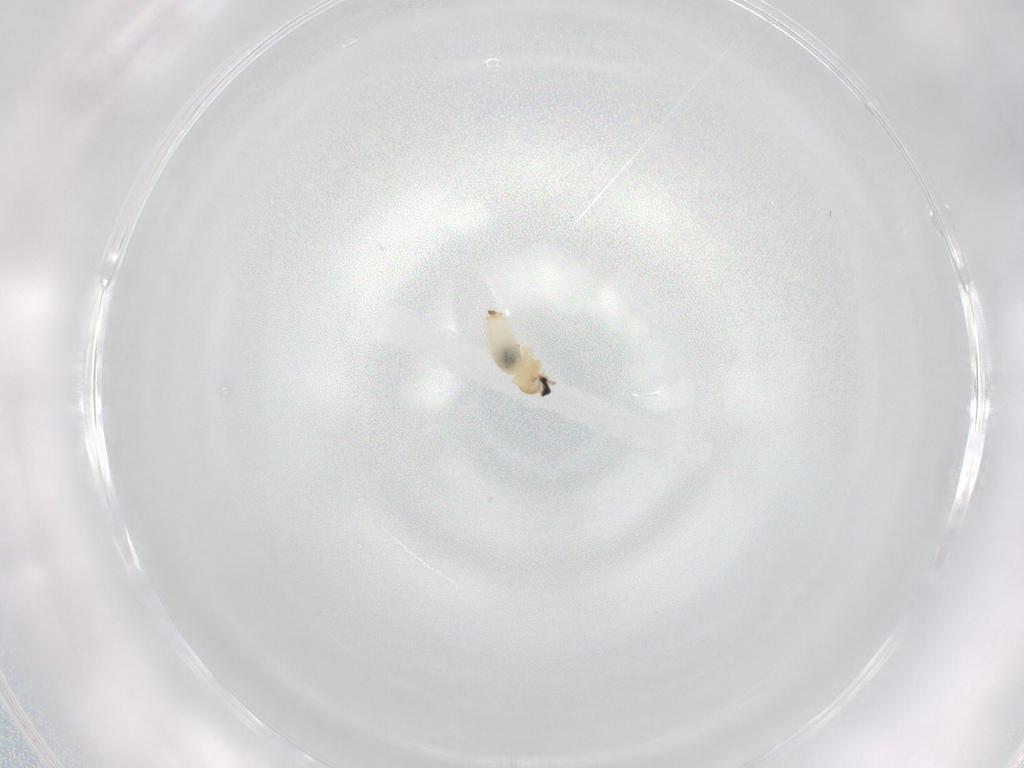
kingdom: Animalia
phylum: Arthropoda
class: Insecta
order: Diptera
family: Cecidomyiidae
